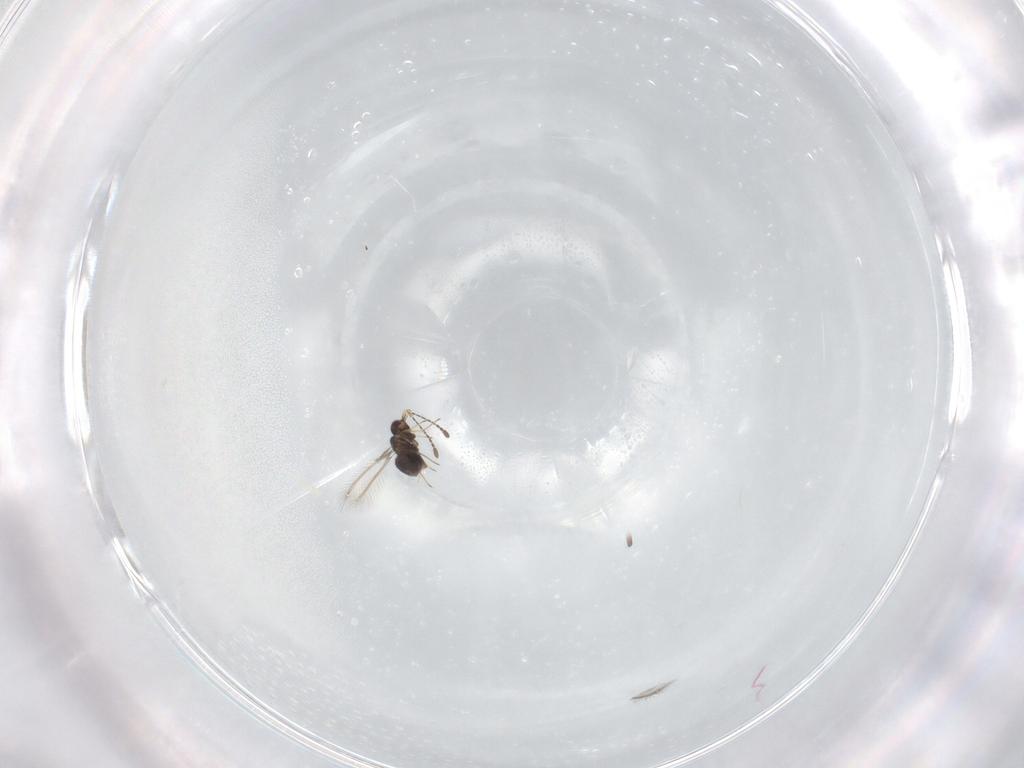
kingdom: Animalia
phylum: Arthropoda
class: Insecta
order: Hymenoptera
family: Mymaridae
